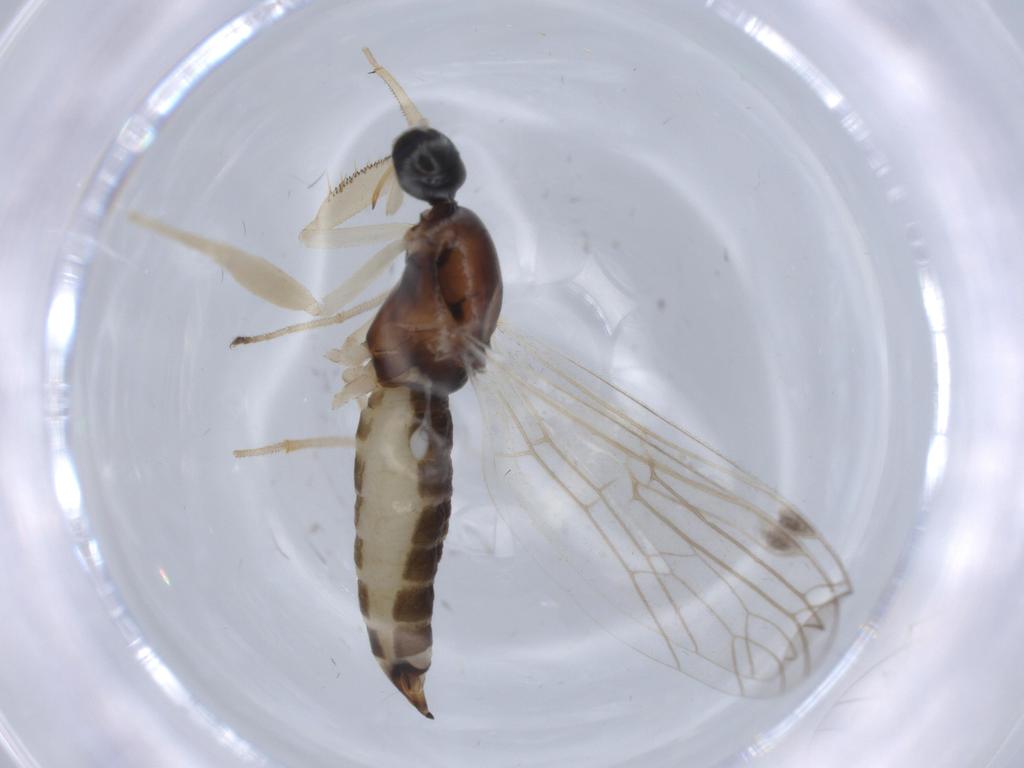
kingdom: Animalia
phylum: Arthropoda
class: Insecta
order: Diptera
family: Empididae
